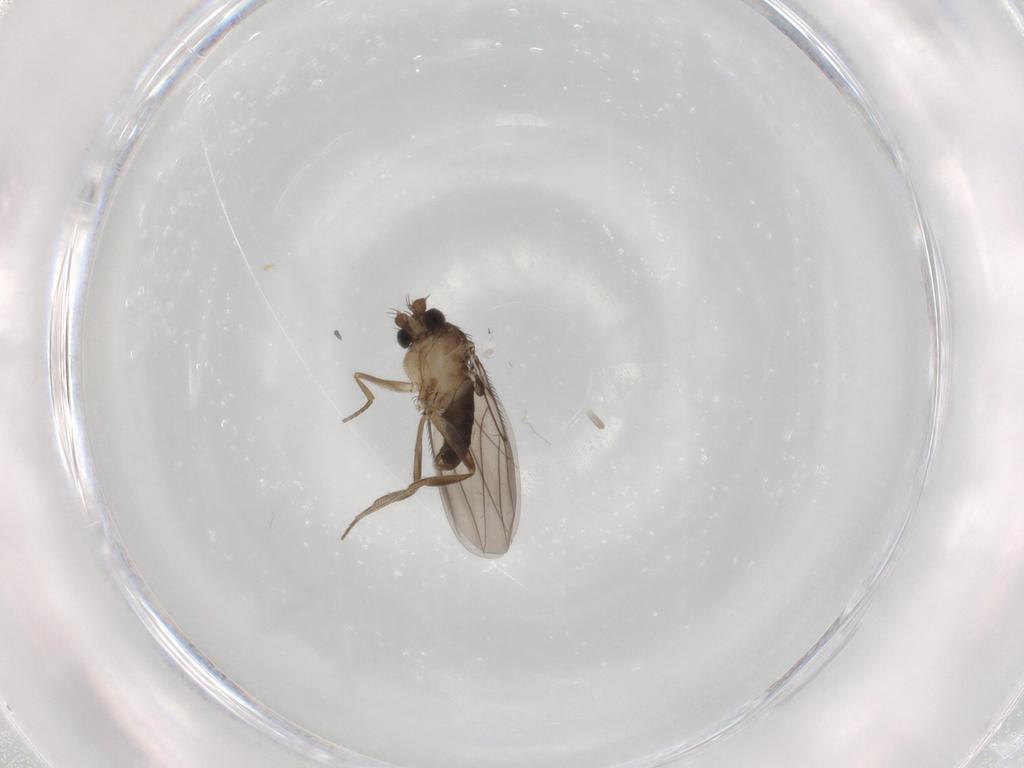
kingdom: Animalia
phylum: Arthropoda
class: Insecta
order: Diptera
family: Phoridae
